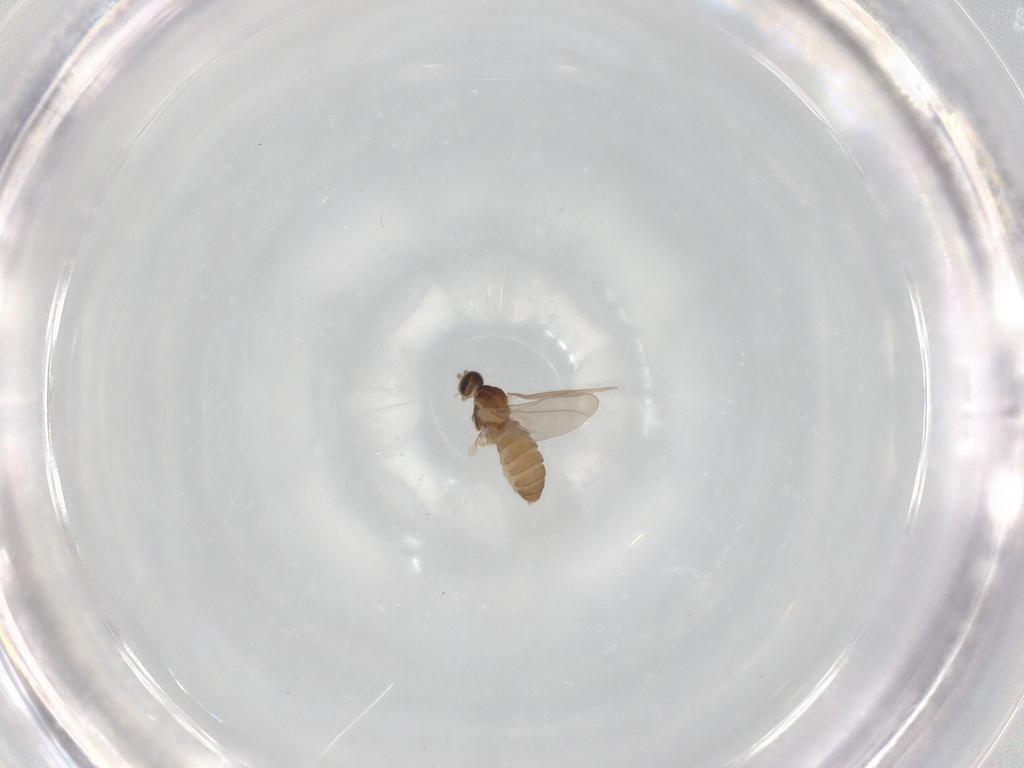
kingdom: Animalia
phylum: Arthropoda
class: Insecta
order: Diptera
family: Cecidomyiidae
